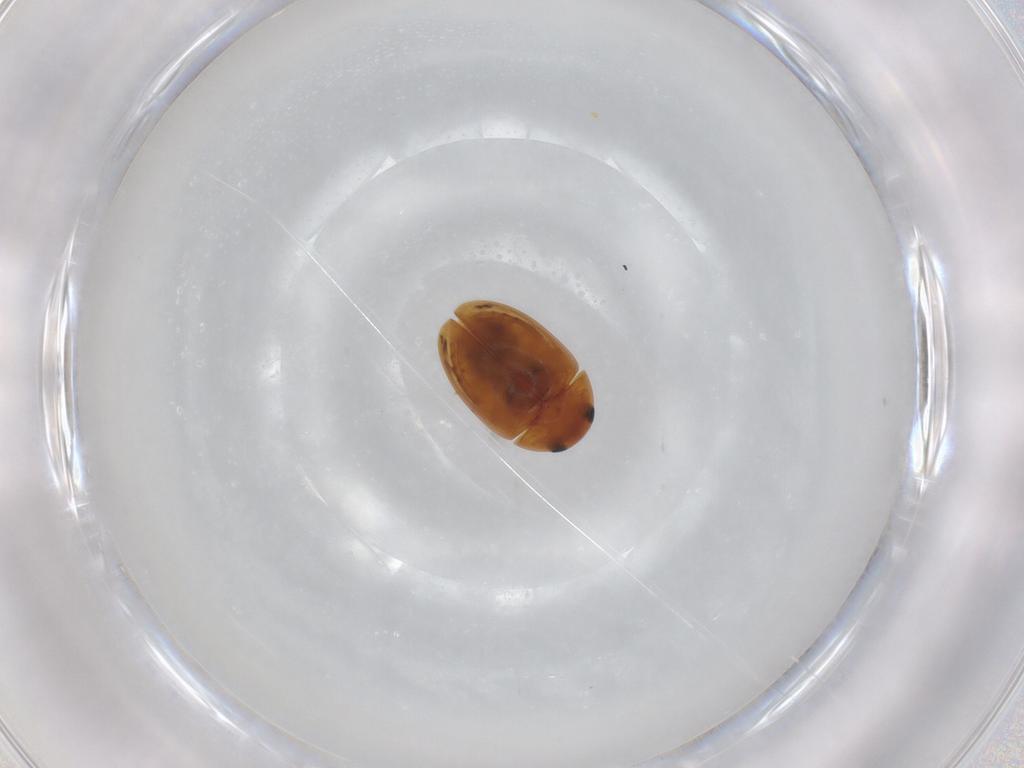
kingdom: Animalia
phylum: Arthropoda
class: Insecta
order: Coleoptera
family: Phalacridae
